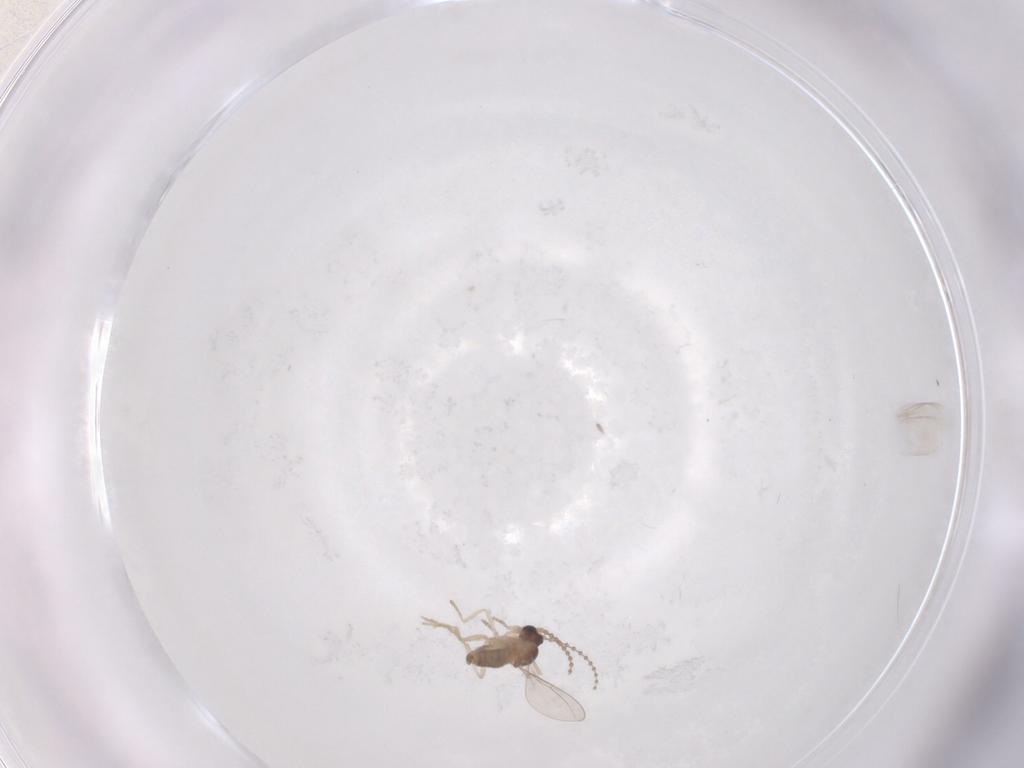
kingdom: Animalia
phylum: Arthropoda
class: Insecta
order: Diptera
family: Cecidomyiidae
